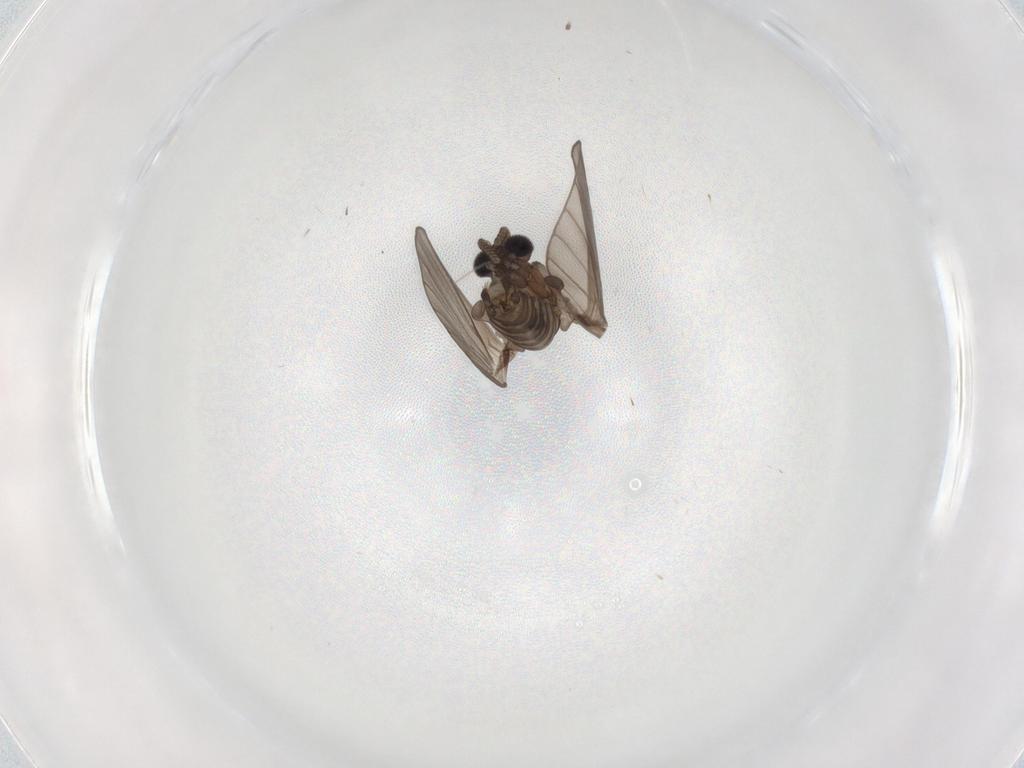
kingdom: Animalia
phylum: Arthropoda
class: Insecta
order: Diptera
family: Psychodidae
